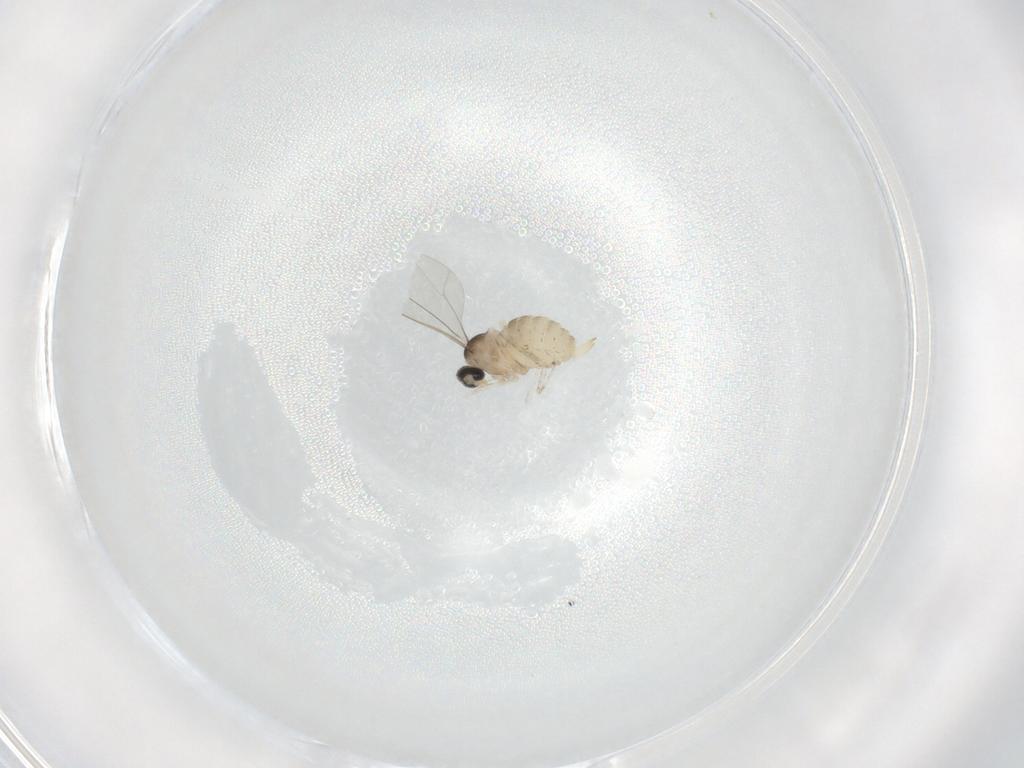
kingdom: Animalia
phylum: Arthropoda
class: Insecta
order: Diptera
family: Cecidomyiidae
